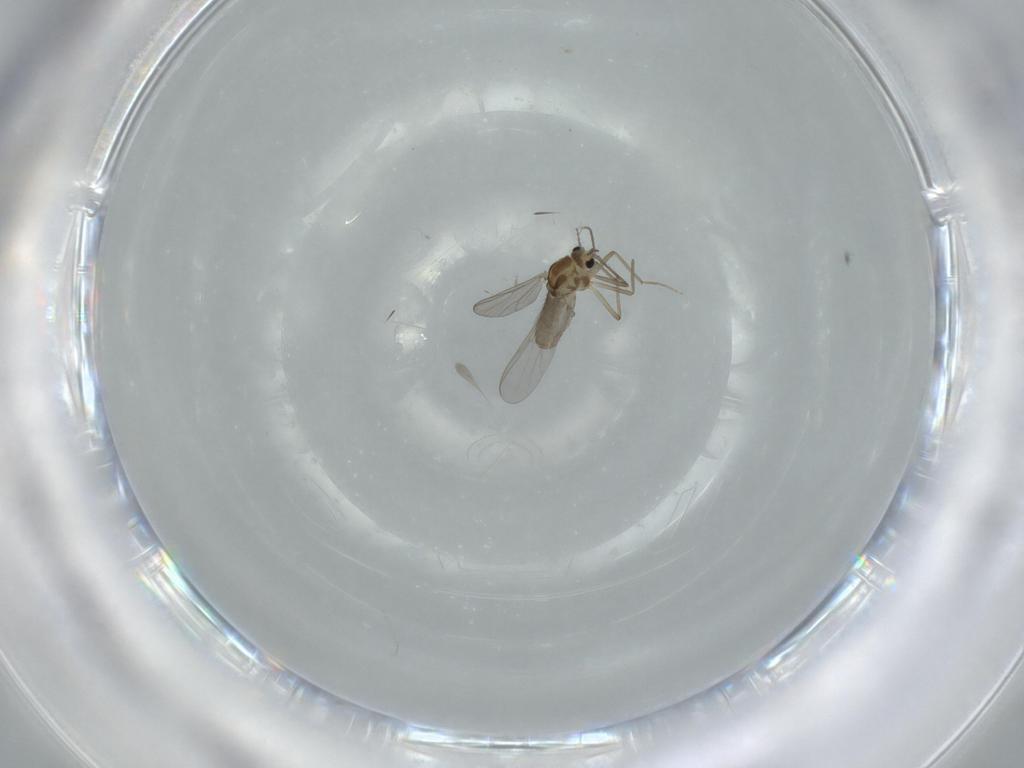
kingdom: Animalia
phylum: Arthropoda
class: Insecta
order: Diptera
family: Chironomidae
